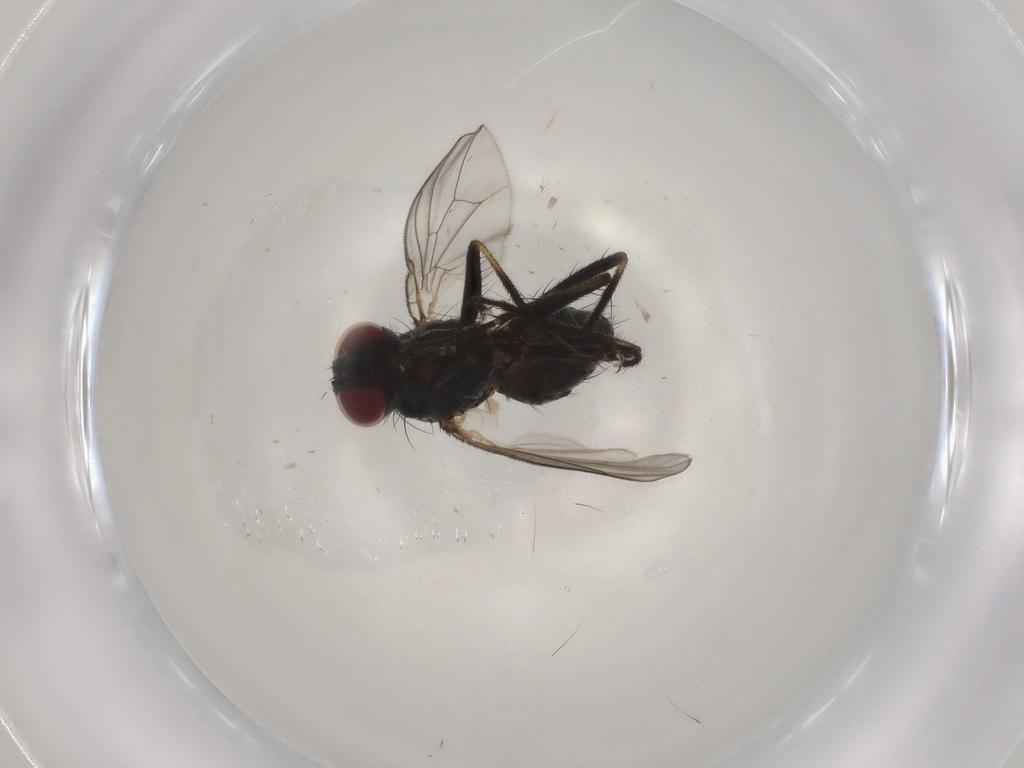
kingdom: Animalia
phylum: Arthropoda
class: Insecta
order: Diptera
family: Muscidae
